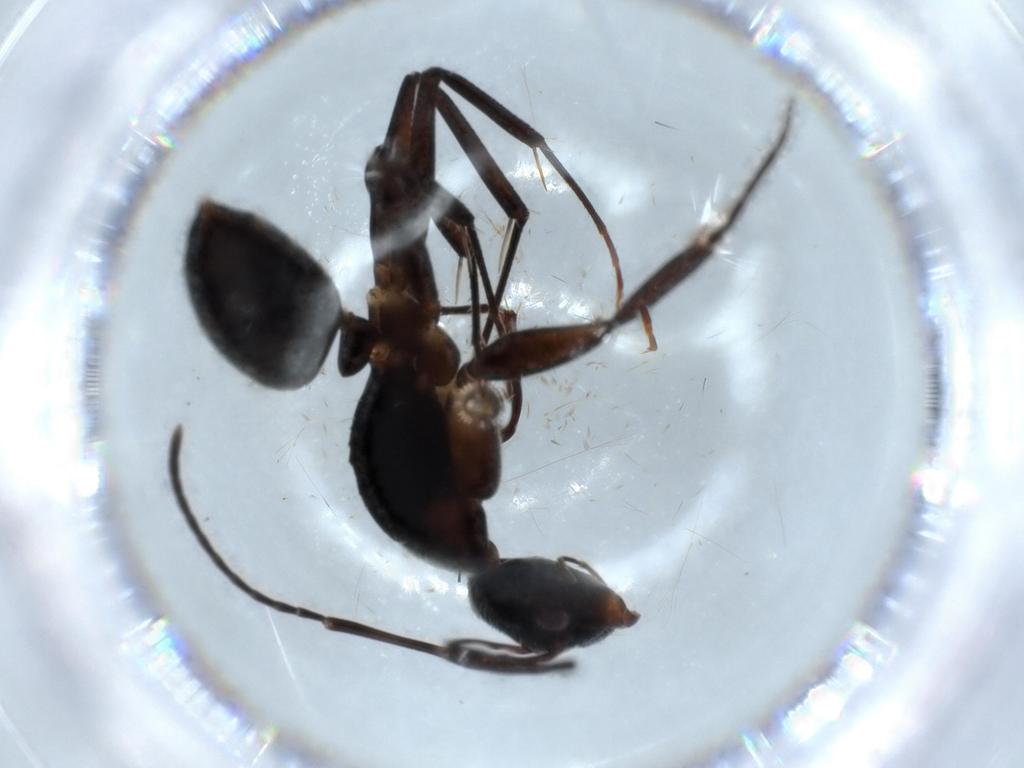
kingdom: Animalia
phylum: Arthropoda
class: Insecta
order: Hymenoptera
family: Formicidae
